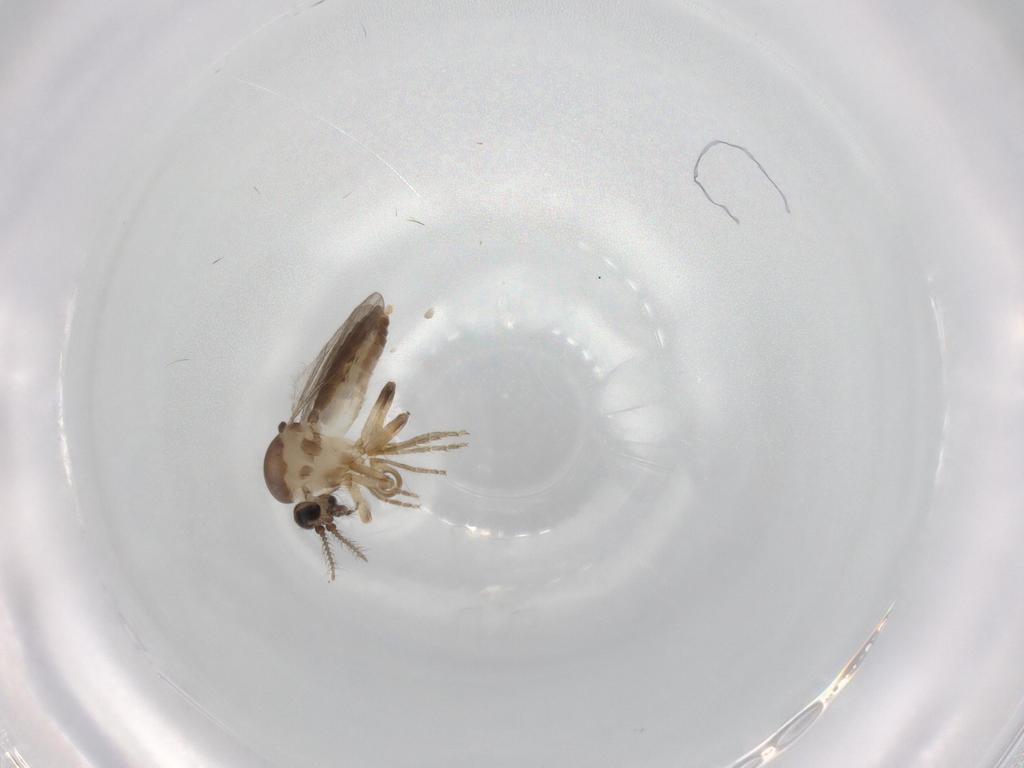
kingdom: Animalia
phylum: Arthropoda
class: Insecta
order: Diptera
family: Ceratopogonidae
